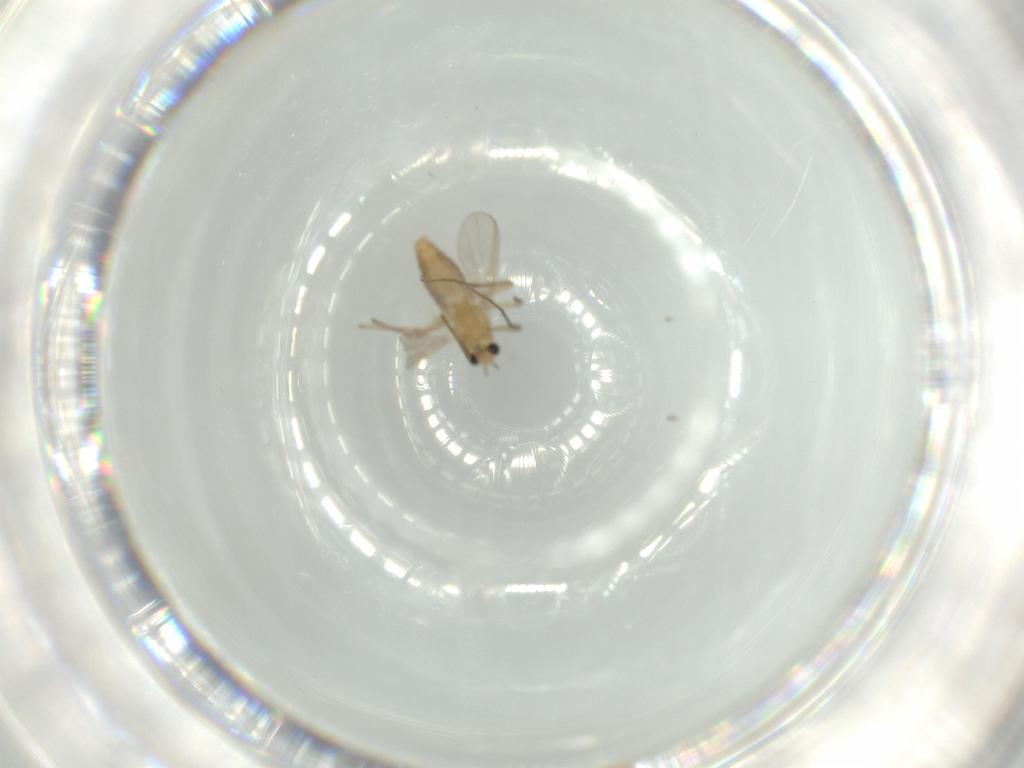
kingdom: Animalia
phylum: Arthropoda
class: Insecta
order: Diptera
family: Chironomidae
